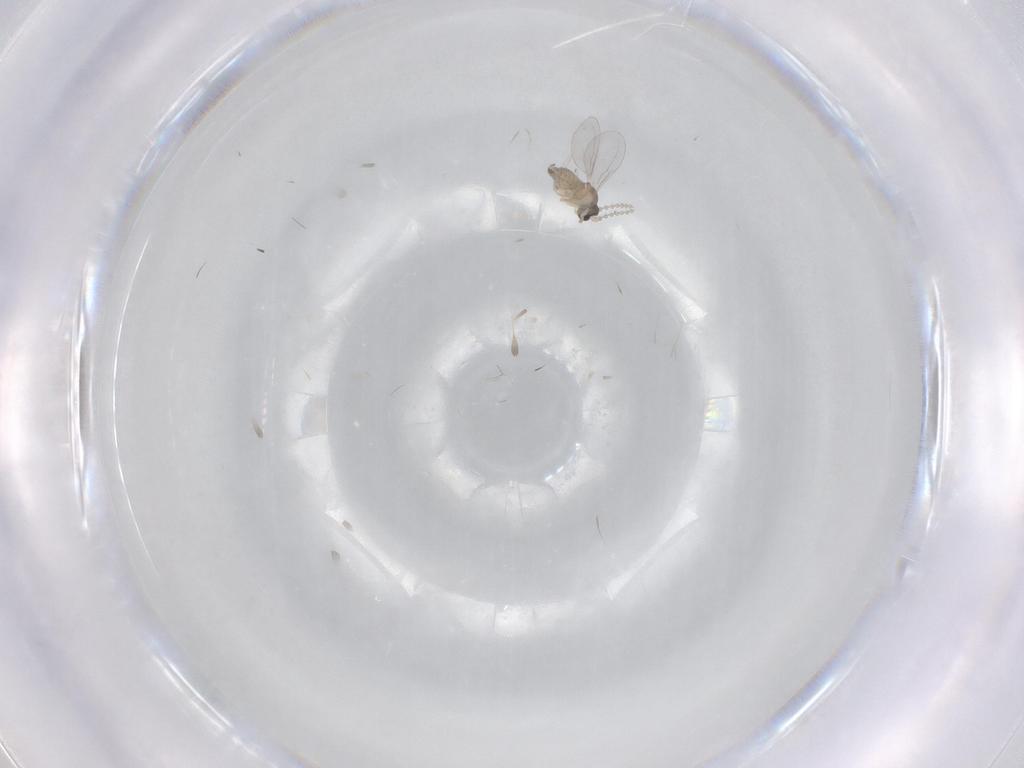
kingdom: Animalia
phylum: Arthropoda
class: Insecta
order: Diptera
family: Cecidomyiidae
